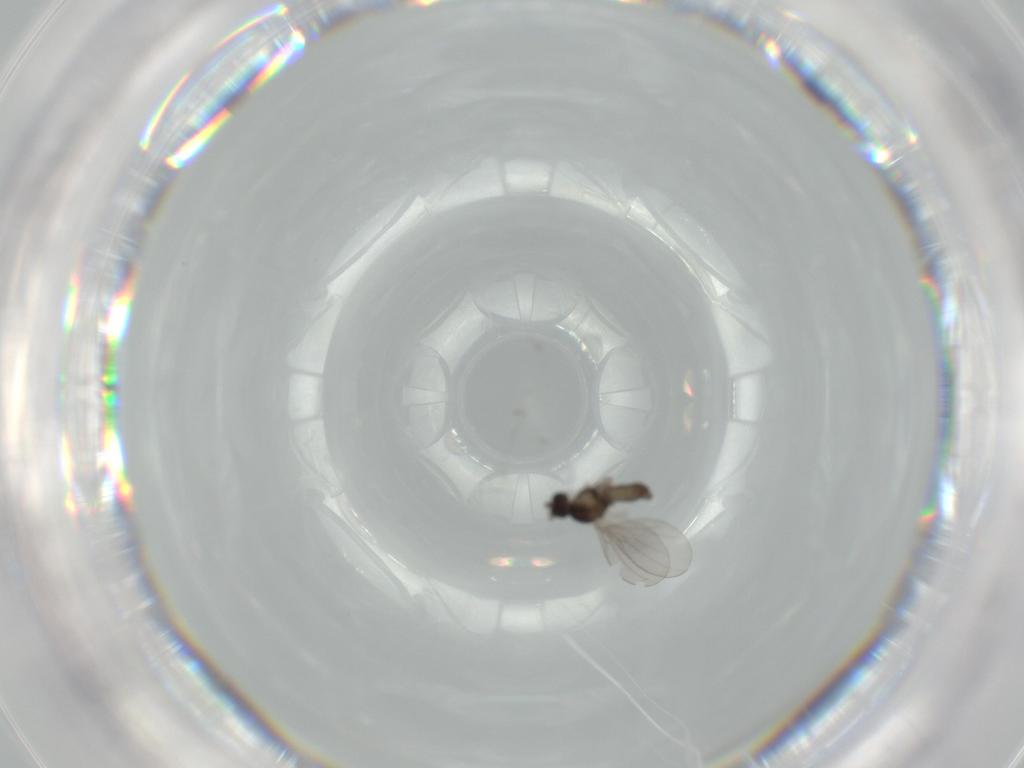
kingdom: Animalia
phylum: Arthropoda
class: Insecta
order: Diptera
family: Cecidomyiidae
